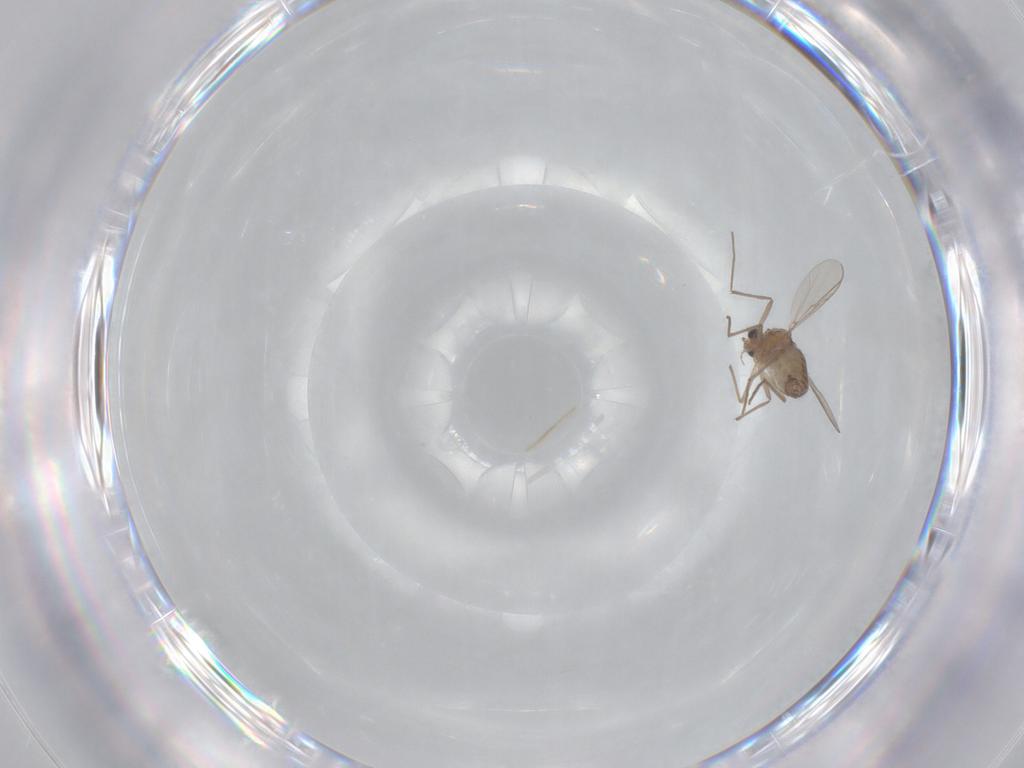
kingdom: Animalia
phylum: Arthropoda
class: Insecta
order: Diptera
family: Chironomidae
